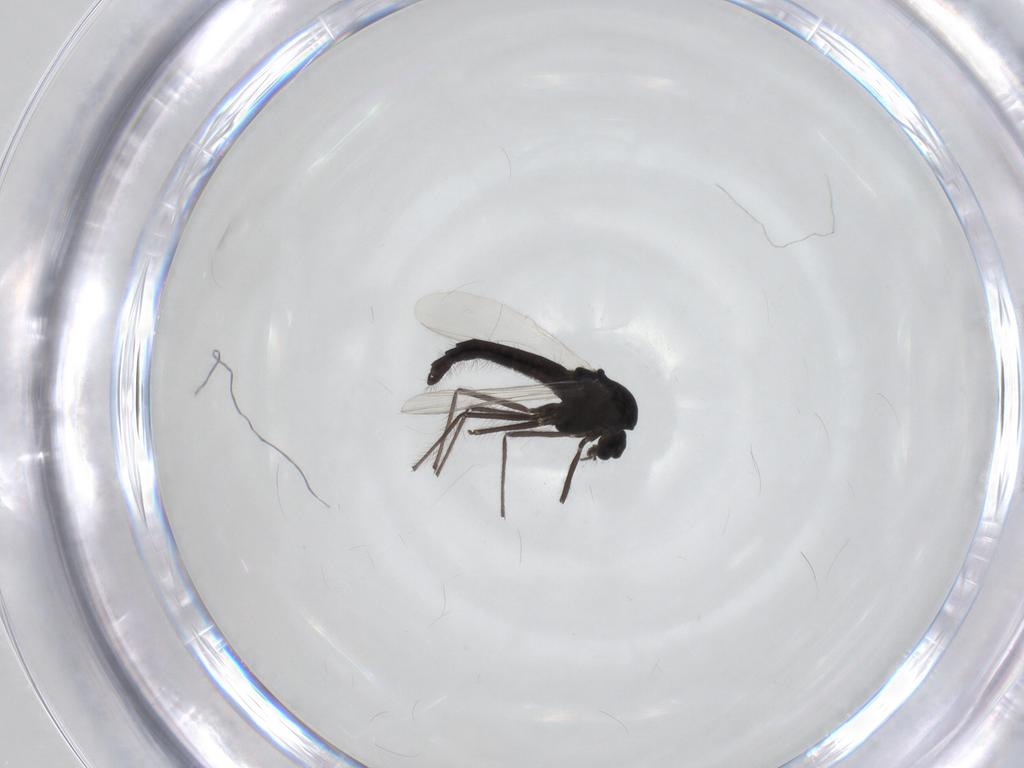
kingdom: Animalia
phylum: Arthropoda
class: Insecta
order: Diptera
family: Chironomidae
